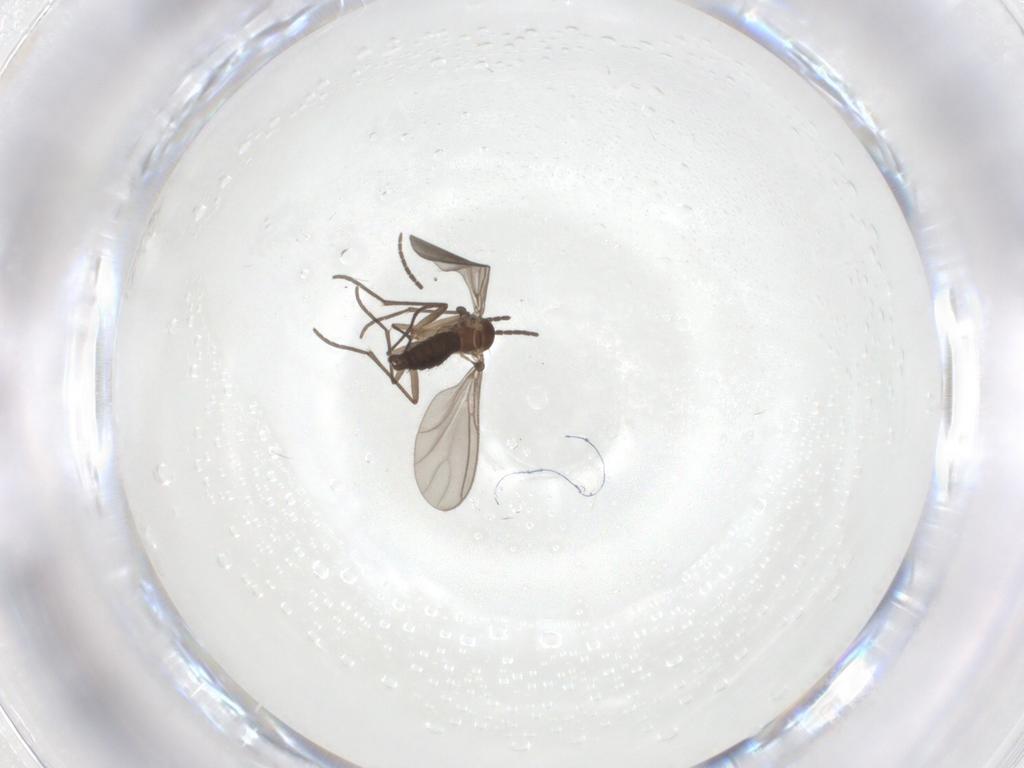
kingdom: Animalia
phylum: Arthropoda
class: Insecta
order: Diptera
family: Sciaridae
